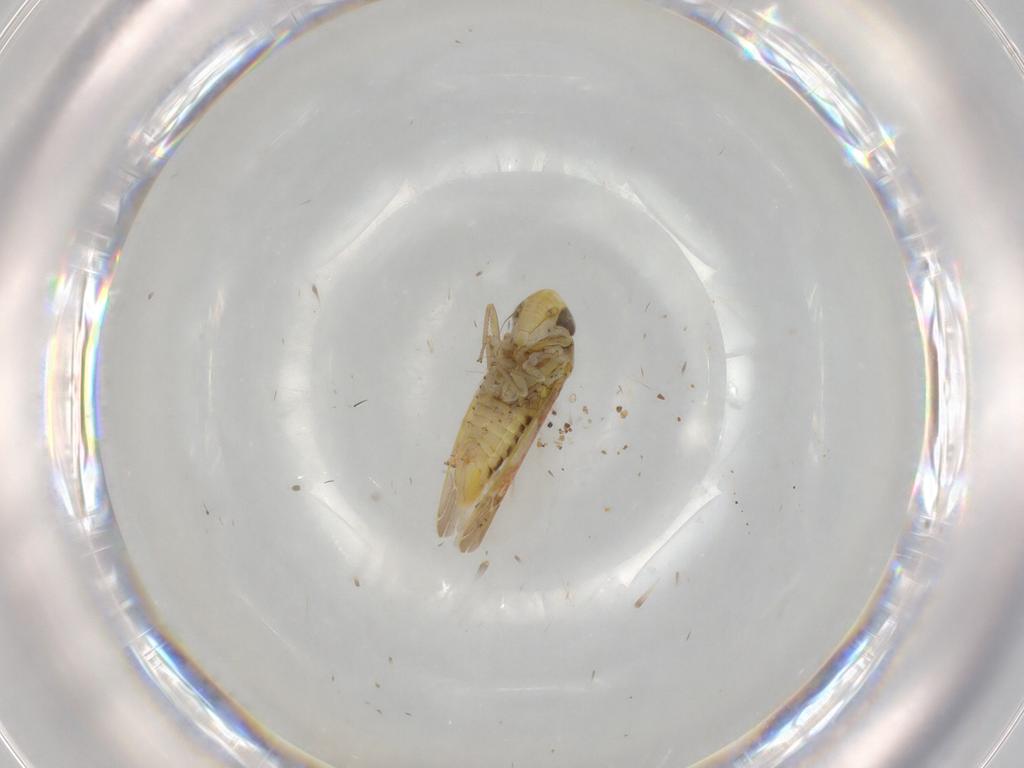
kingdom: Animalia
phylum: Arthropoda
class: Insecta
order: Hemiptera
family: Cicadellidae
